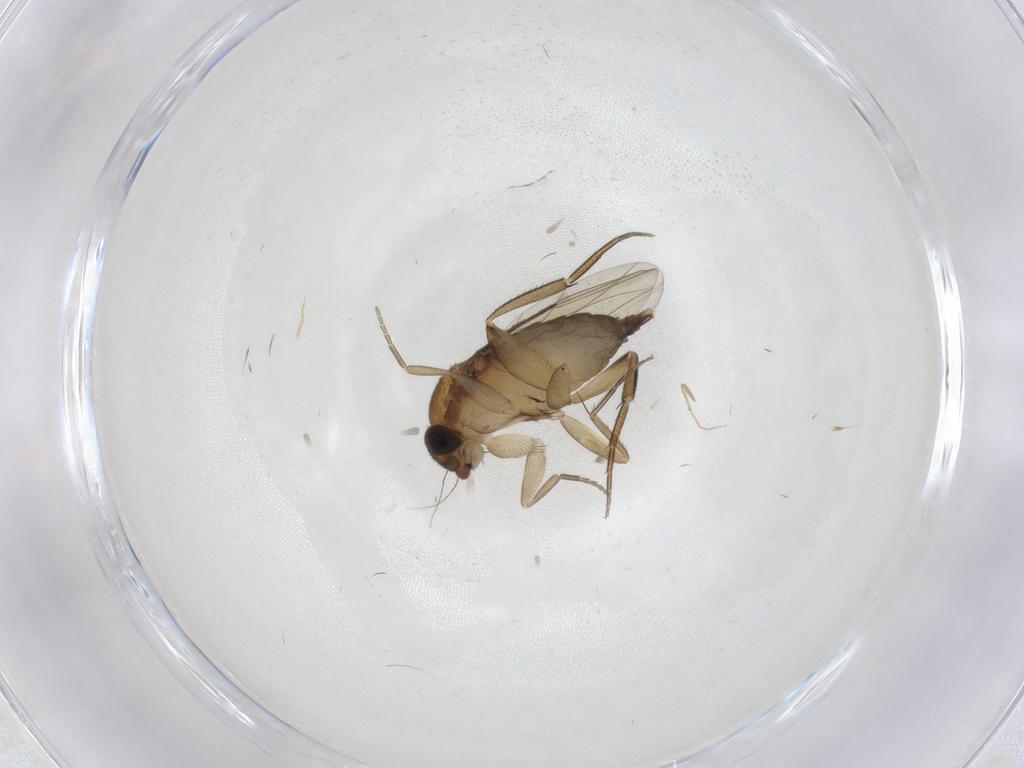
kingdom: Animalia
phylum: Arthropoda
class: Insecta
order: Diptera
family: Phoridae
